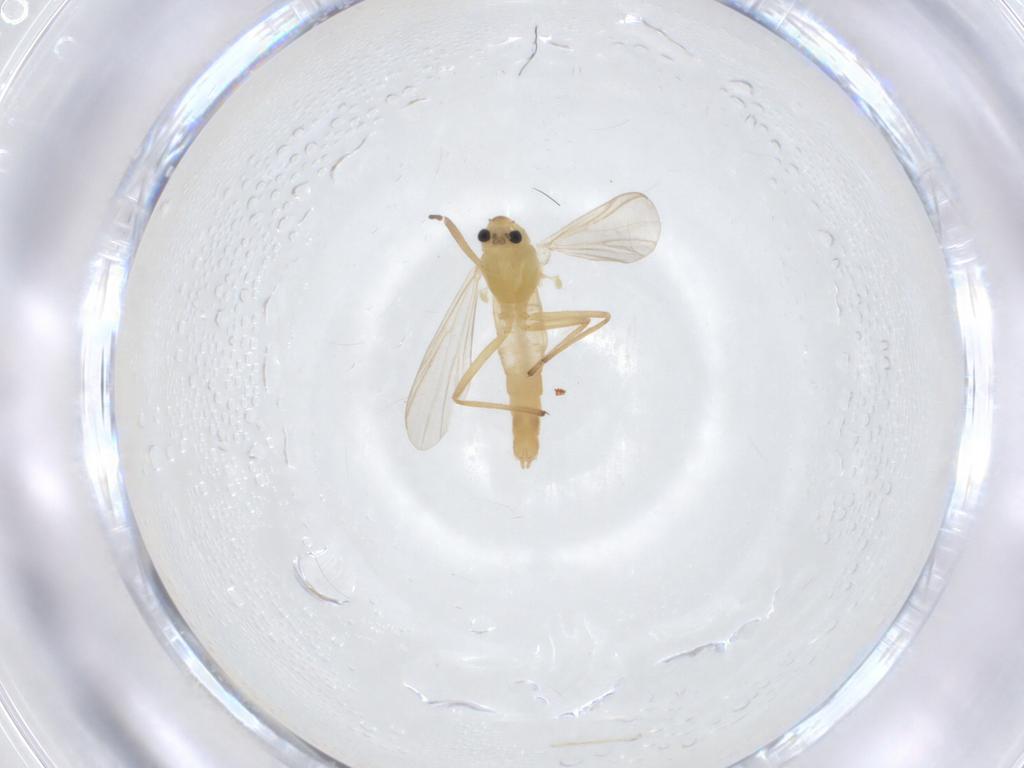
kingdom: Animalia
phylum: Arthropoda
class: Insecta
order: Diptera
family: Chironomidae
